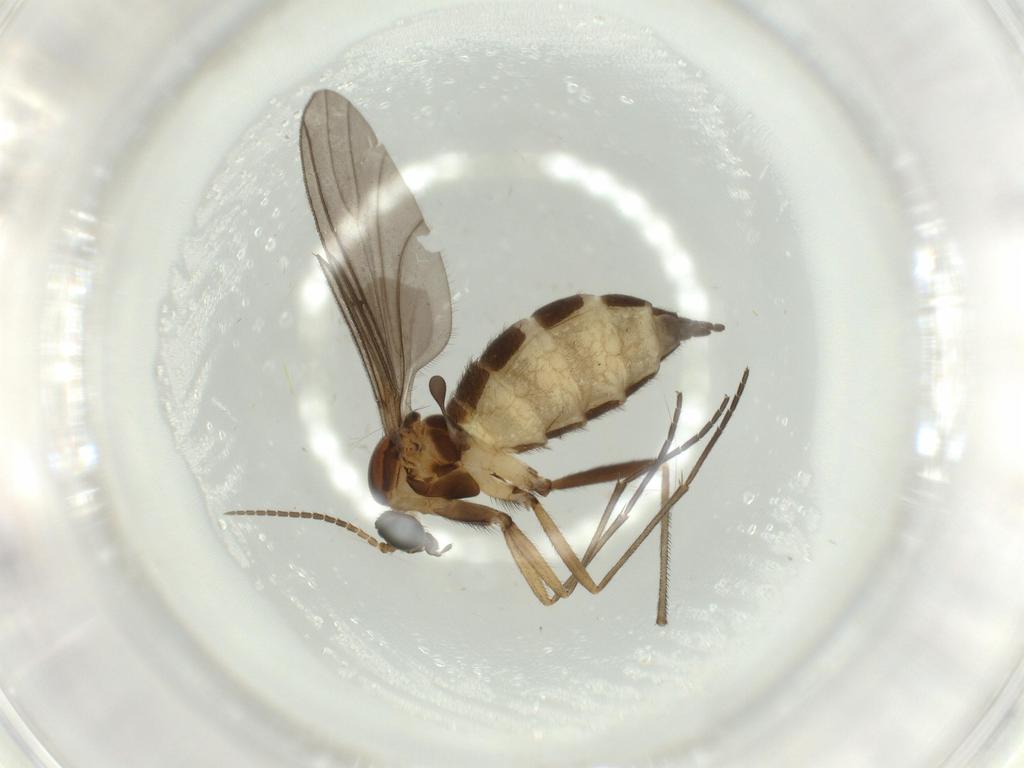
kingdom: Animalia
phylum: Arthropoda
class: Insecta
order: Diptera
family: Sciaridae
